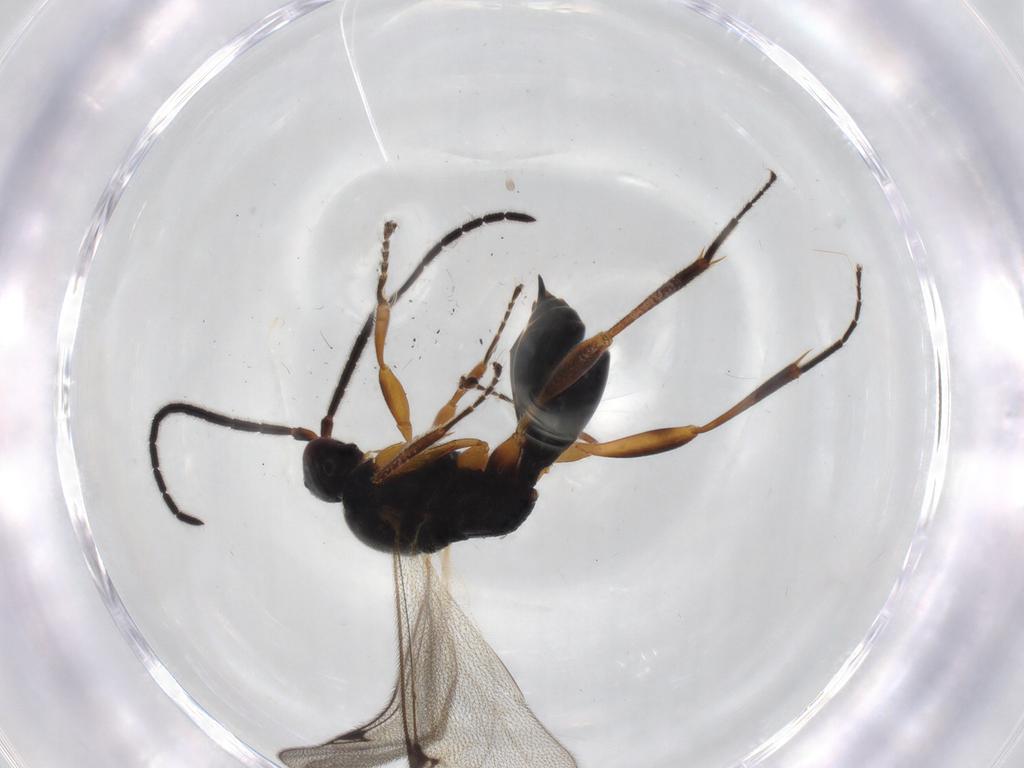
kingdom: Animalia
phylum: Arthropoda
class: Insecta
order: Hymenoptera
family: Proctotrupidae
